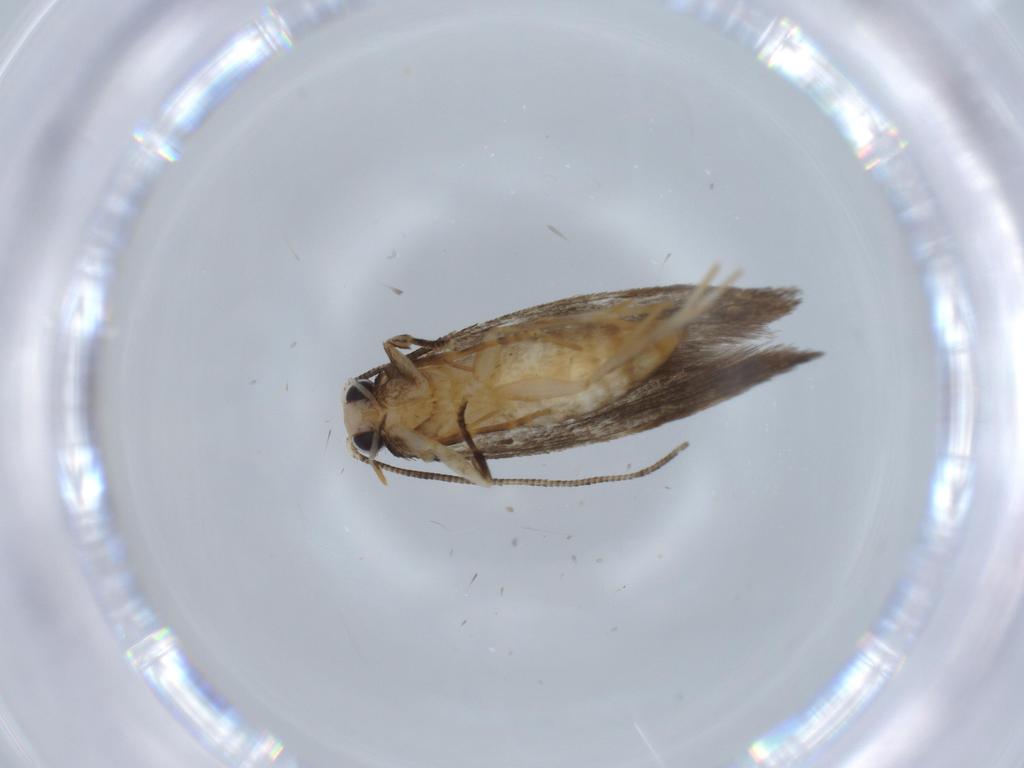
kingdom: Animalia
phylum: Arthropoda
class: Insecta
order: Lepidoptera
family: Tineidae
